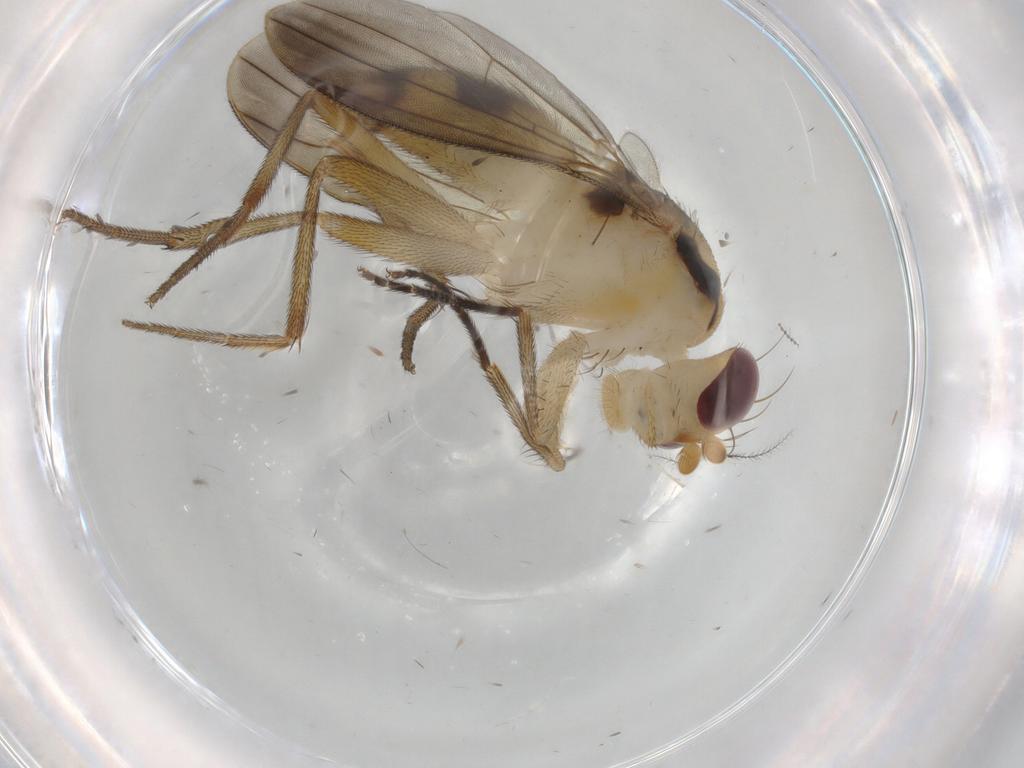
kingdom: Animalia
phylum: Arthropoda
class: Insecta
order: Diptera
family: Clusiidae
